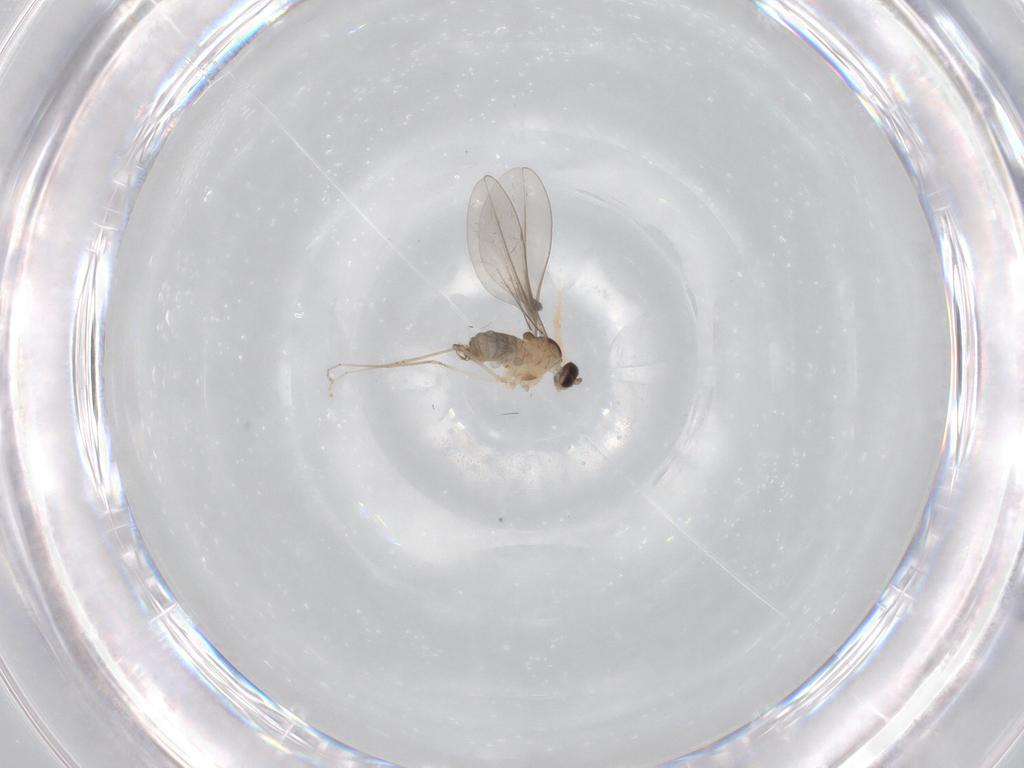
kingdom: Animalia
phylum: Arthropoda
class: Insecta
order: Diptera
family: Cecidomyiidae
